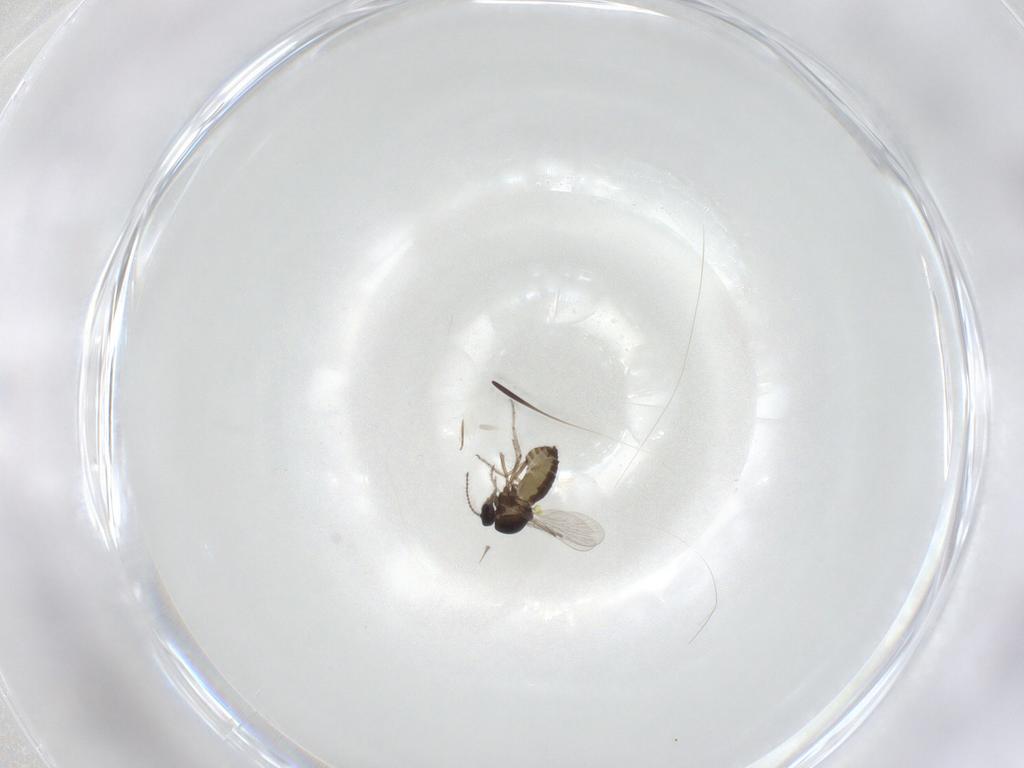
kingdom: Animalia
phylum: Arthropoda
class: Insecta
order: Diptera
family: Ceratopogonidae
